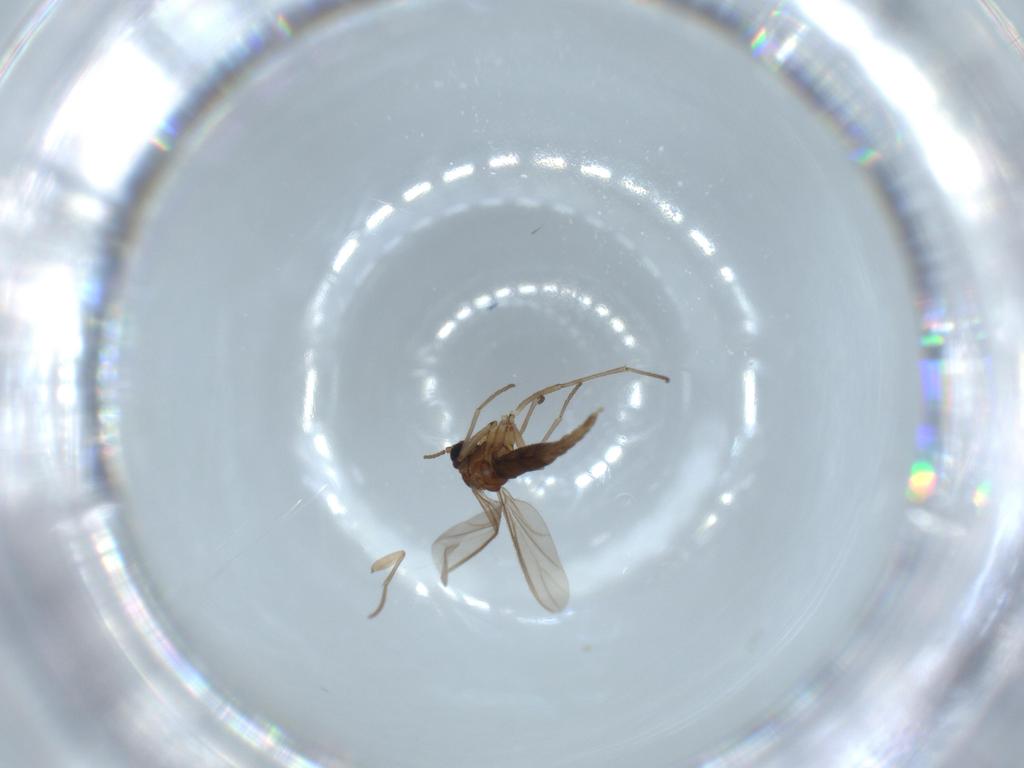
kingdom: Animalia
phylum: Arthropoda
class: Insecta
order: Diptera
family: Sciaridae
